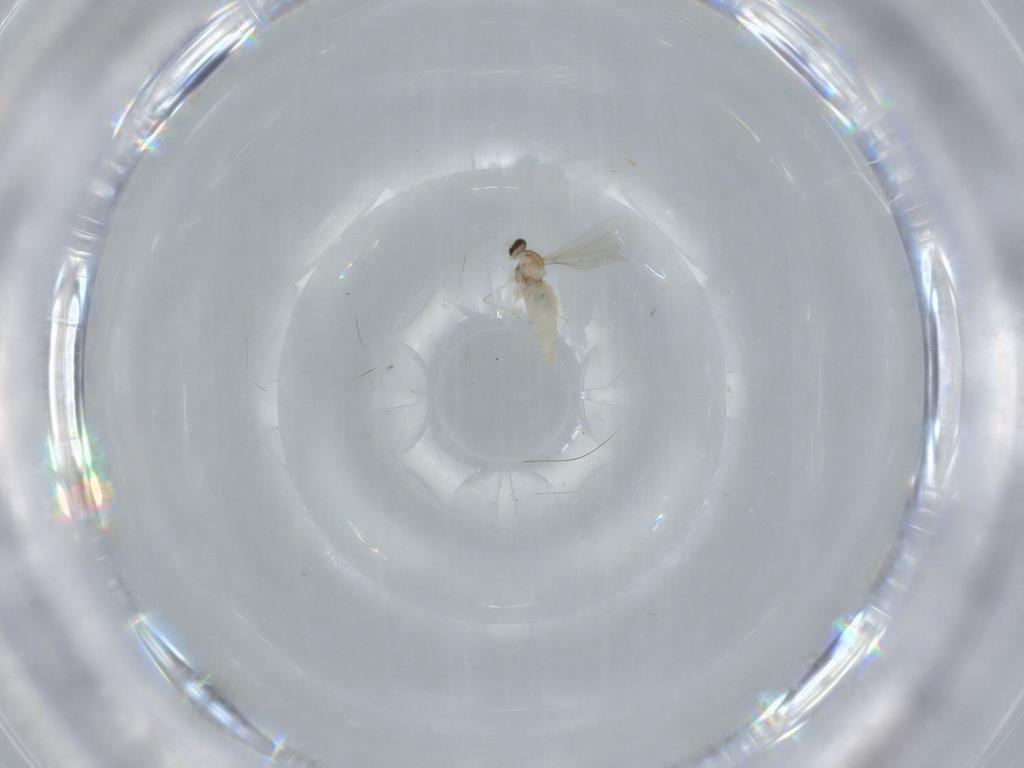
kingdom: Animalia
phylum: Arthropoda
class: Insecta
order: Diptera
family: Cecidomyiidae
